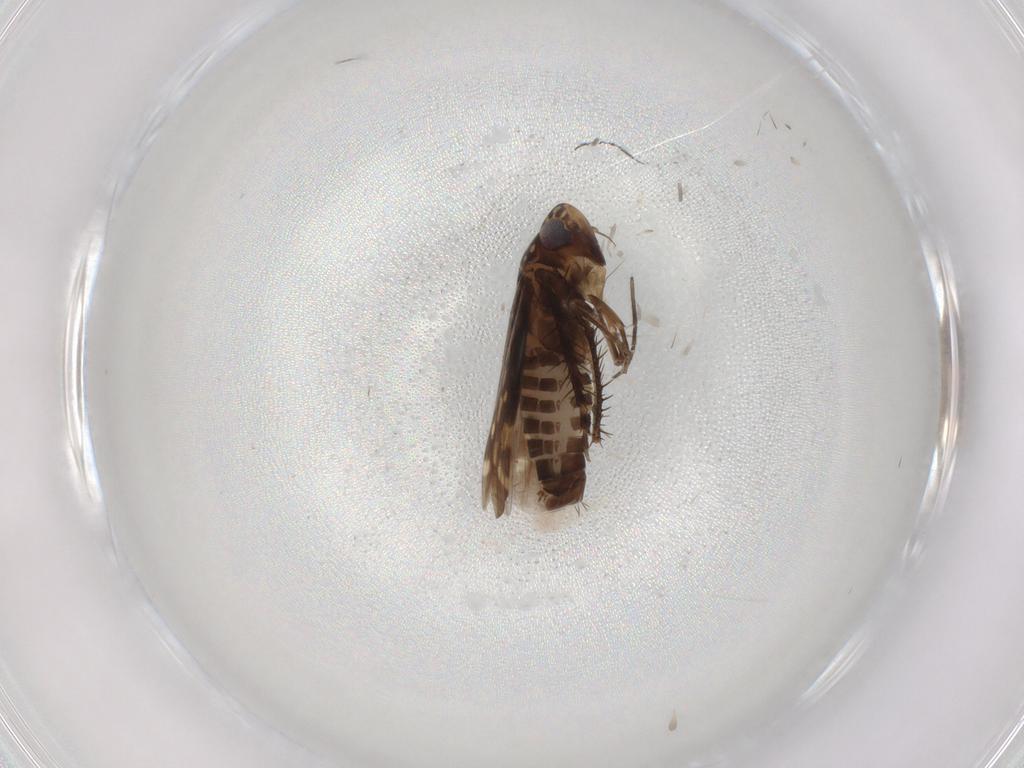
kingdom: Animalia
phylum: Arthropoda
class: Insecta
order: Hemiptera
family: Cicadellidae
